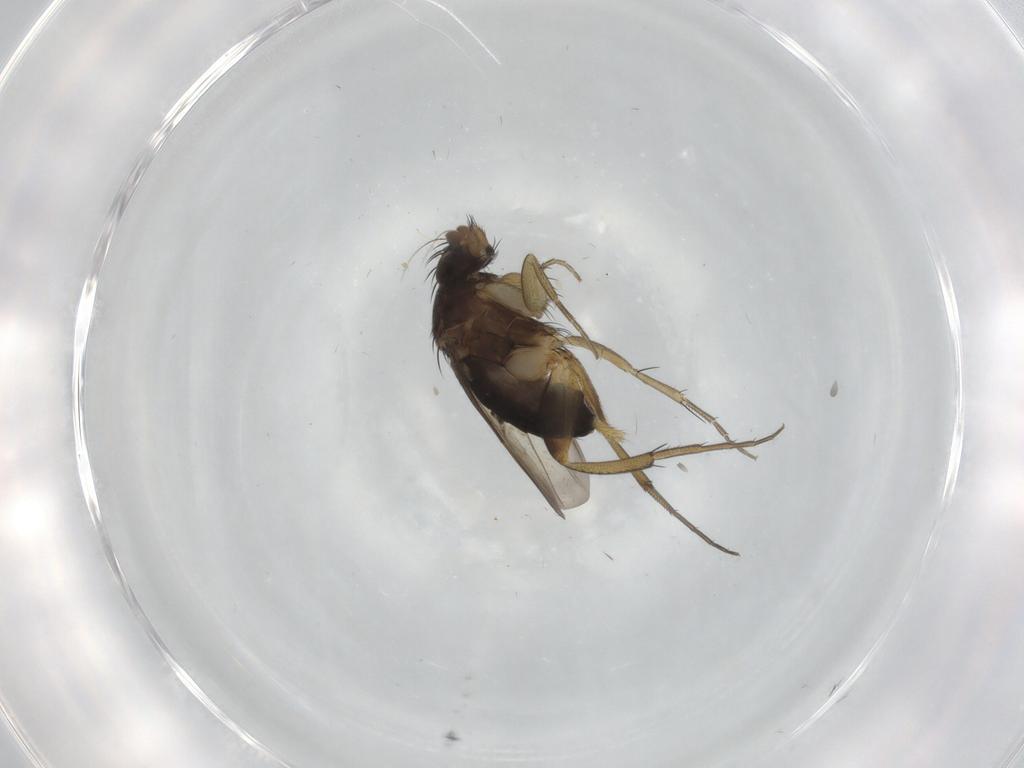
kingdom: Animalia
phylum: Arthropoda
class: Insecta
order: Diptera
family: Phoridae
